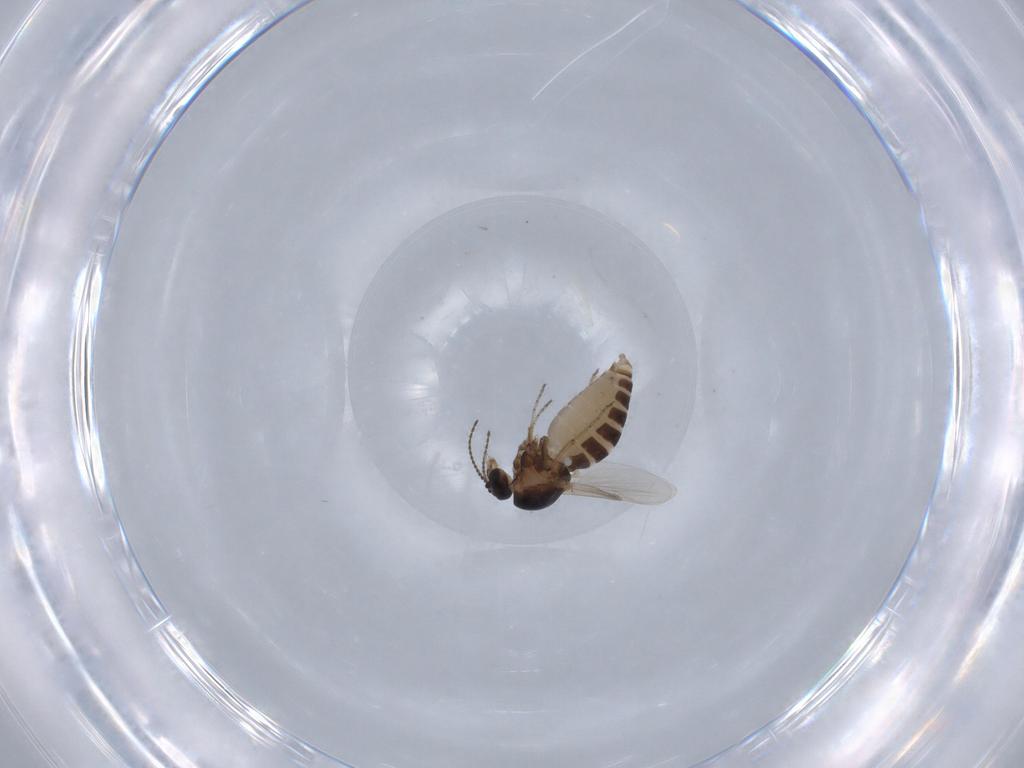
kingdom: Animalia
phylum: Arthropoda
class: Insecta
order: Diptera
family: Ceratopogonidae
